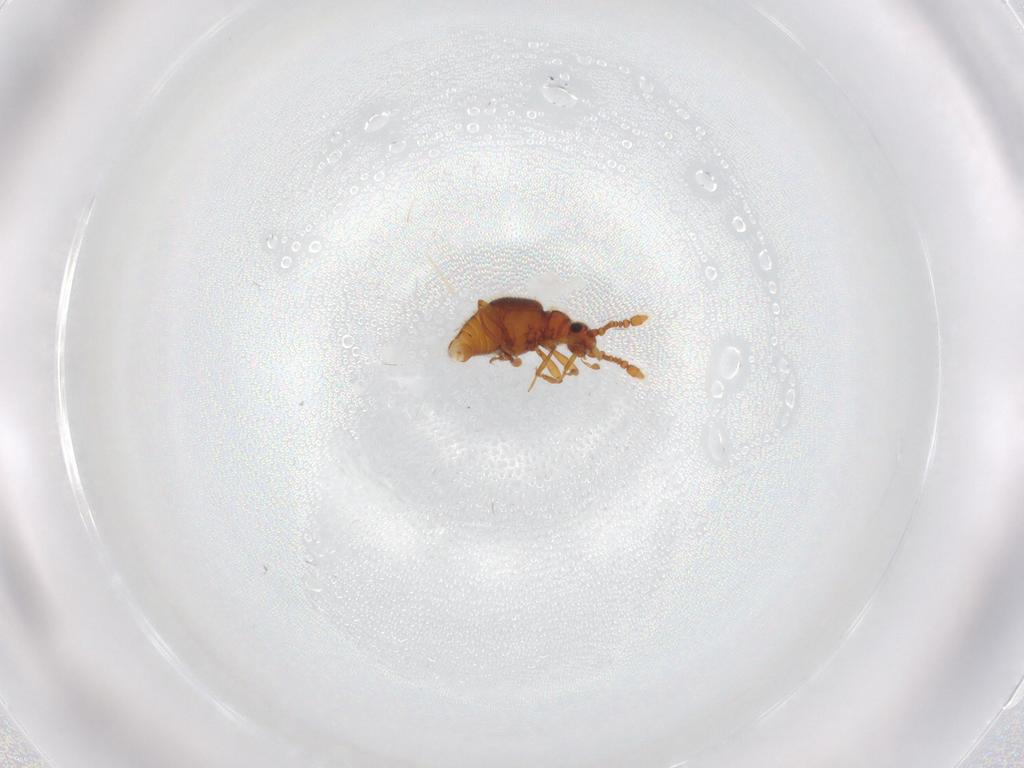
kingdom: Animalia
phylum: Arthropoda
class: Insecta
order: Coleoptera
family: Staphylinidae
